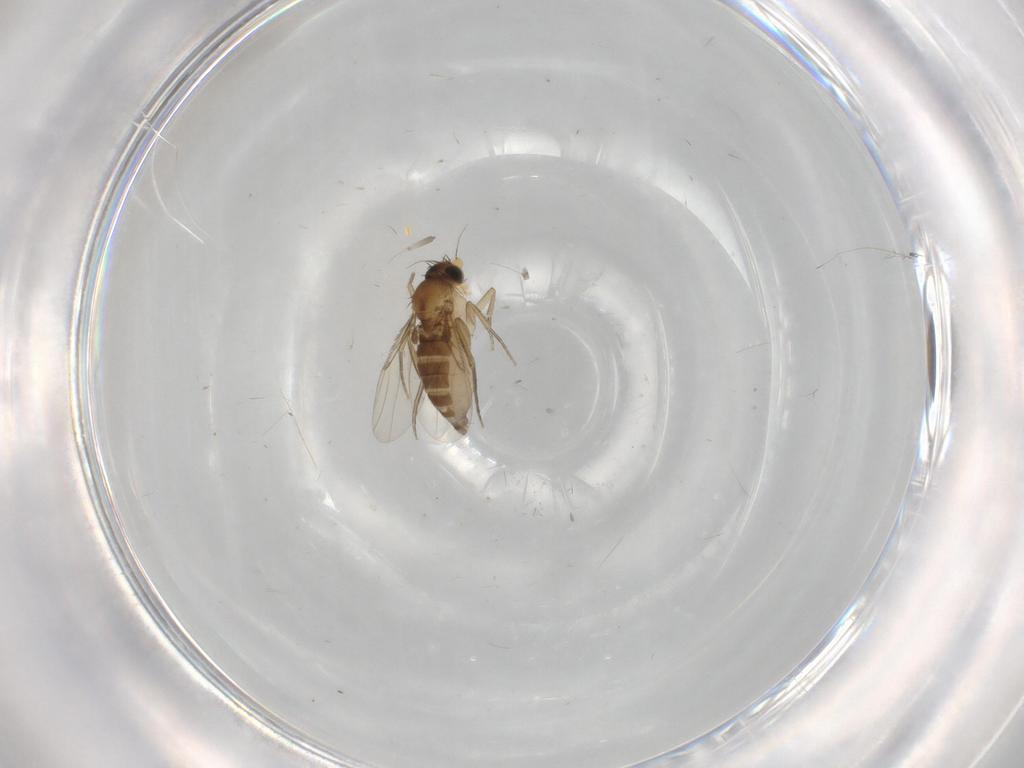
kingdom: Animalia
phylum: Arthropoda
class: Insecta
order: Diptera
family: Phoridae
